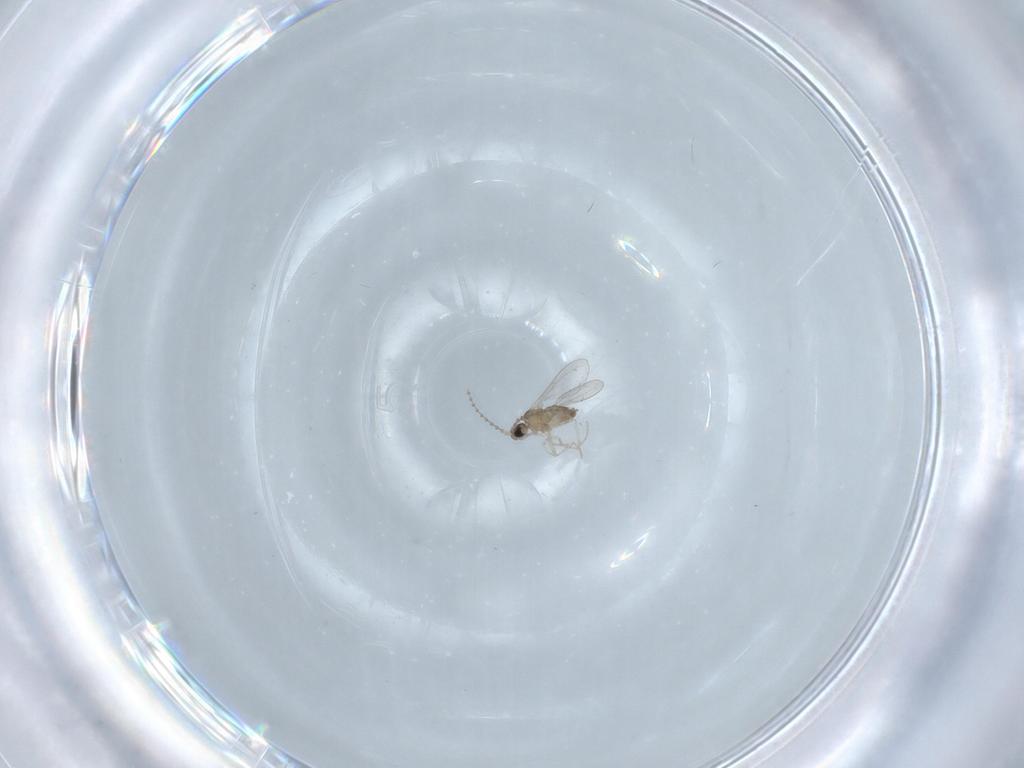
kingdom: Animalia
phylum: Arthropoda
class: Insecta
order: Diptera
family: Cecidomyiidae
